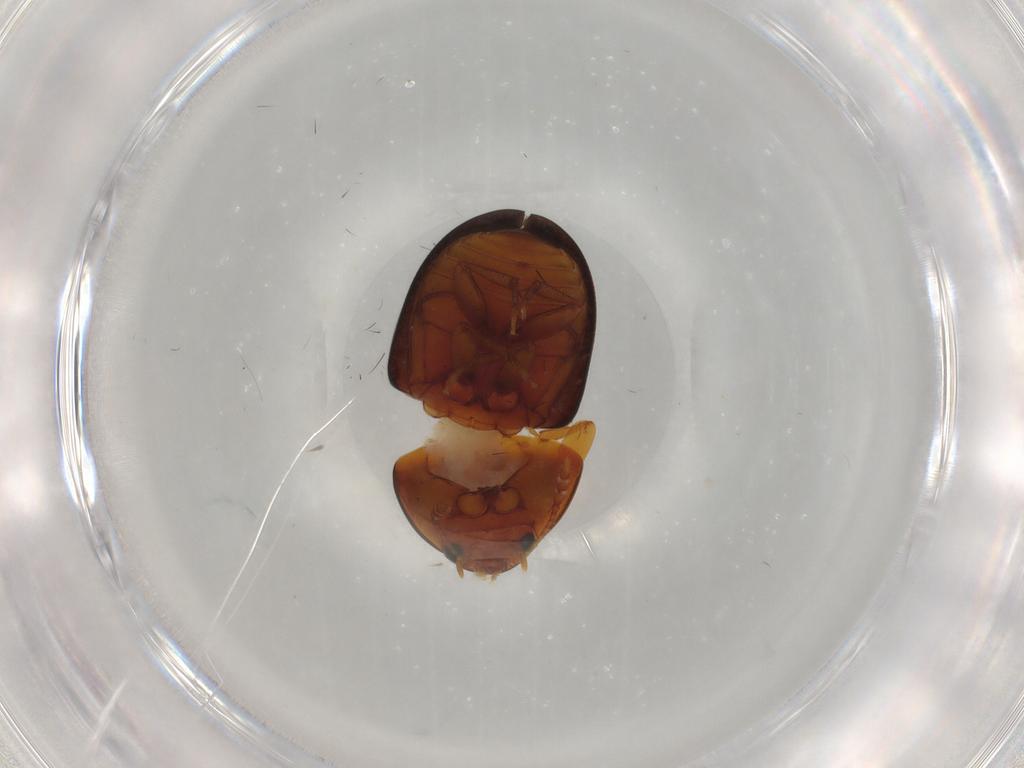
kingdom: Animalia
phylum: Arthropoda
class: Insecta
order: Coleoptera
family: Phalacridae
